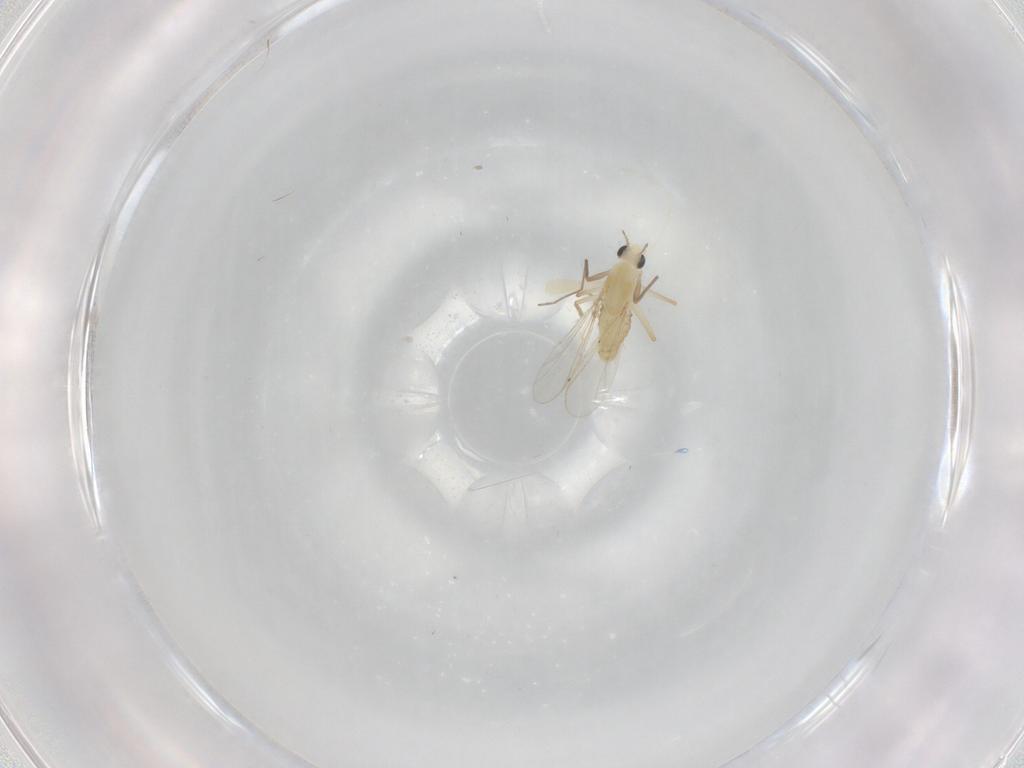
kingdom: Animalia
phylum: Arthropoda
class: Insecta
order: Diptera
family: Chironomidae
